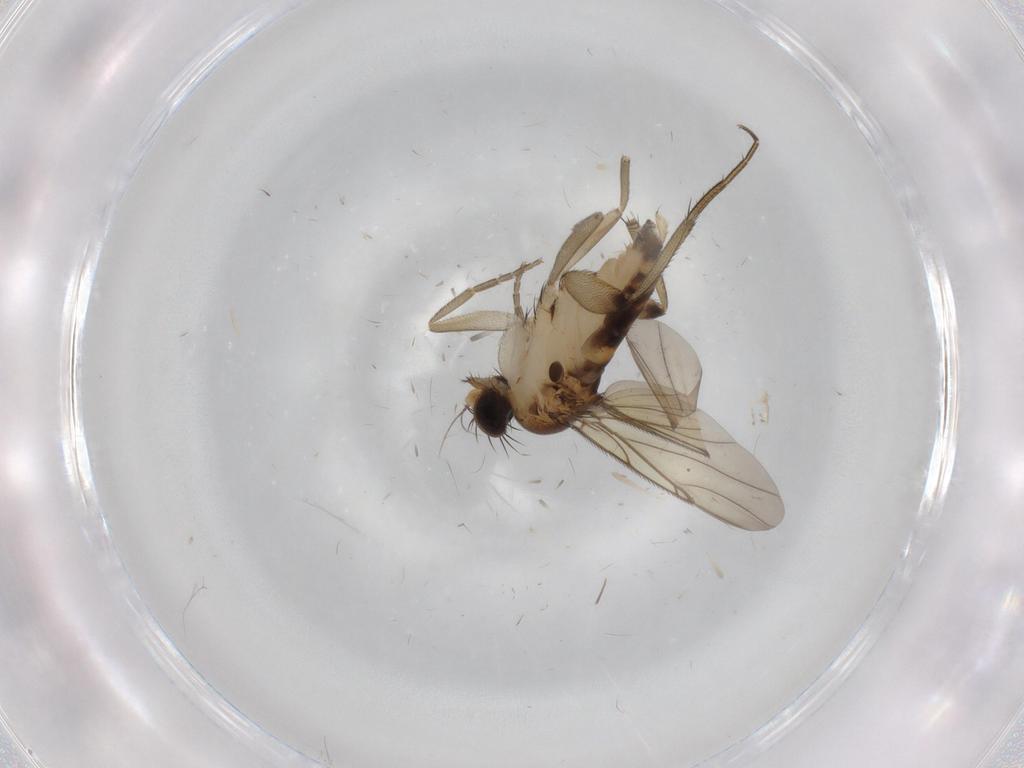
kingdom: Animalia
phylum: Arthropoda
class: Insecta
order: Diptera
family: Phoridae
